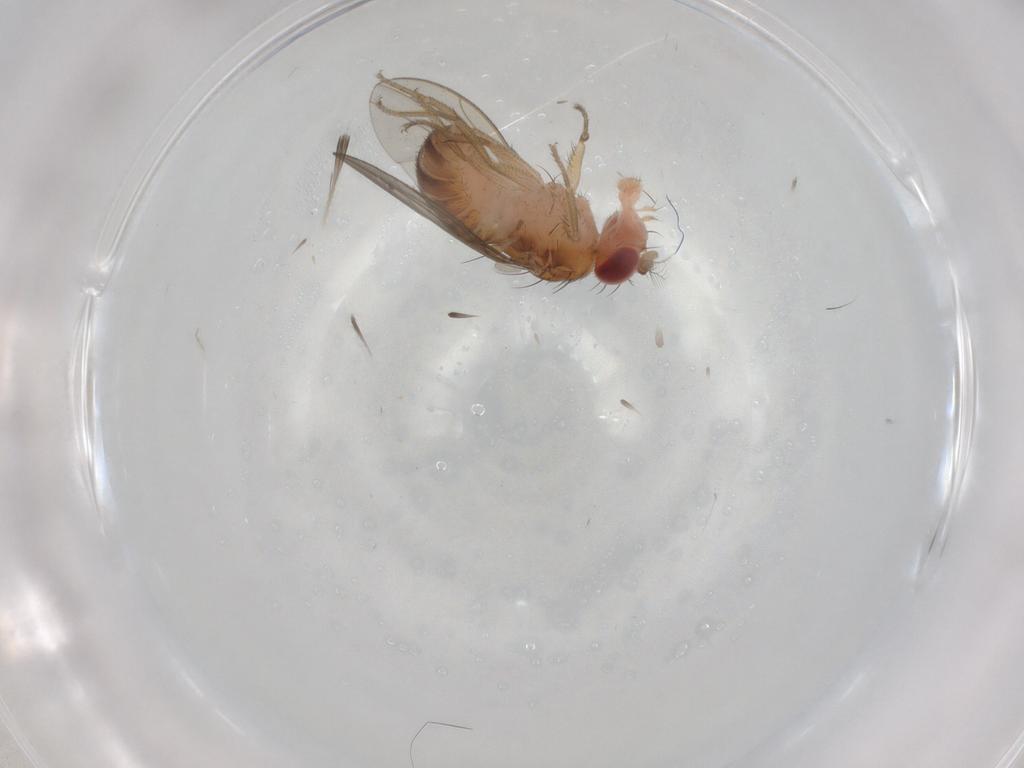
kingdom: Animalia
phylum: Arthropoda
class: Insecta
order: Diptera
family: Drosophilidae
